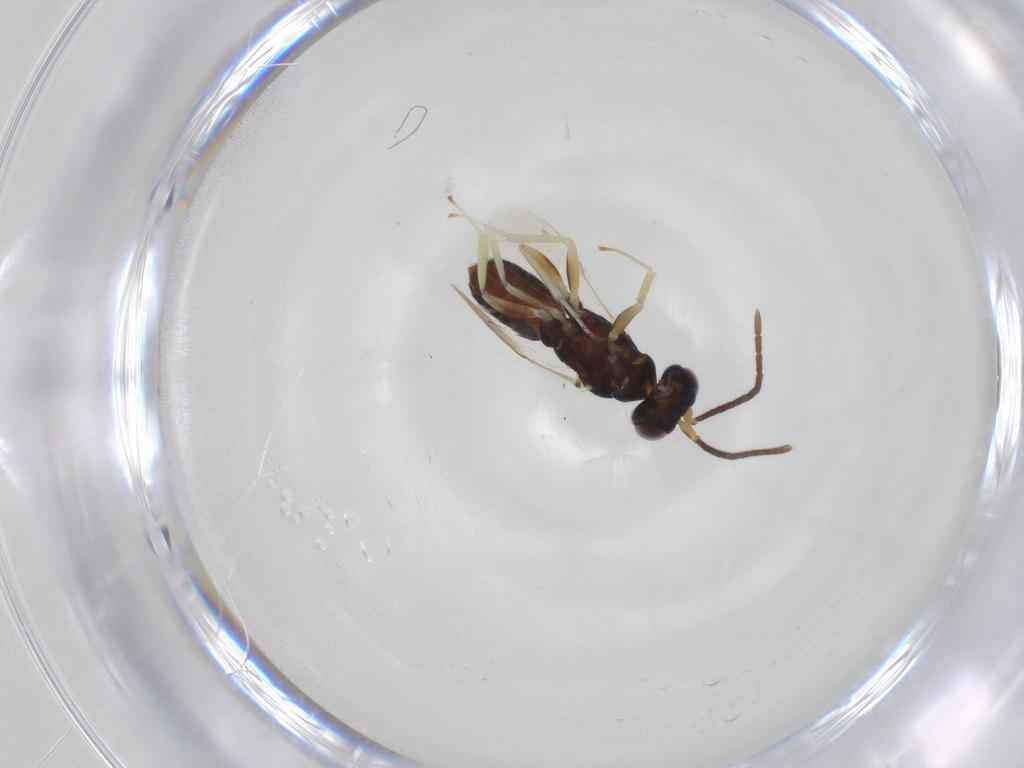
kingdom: Animalia
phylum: Arthropoda
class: Insecta
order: Hymenoptera
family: Eupelmidae
